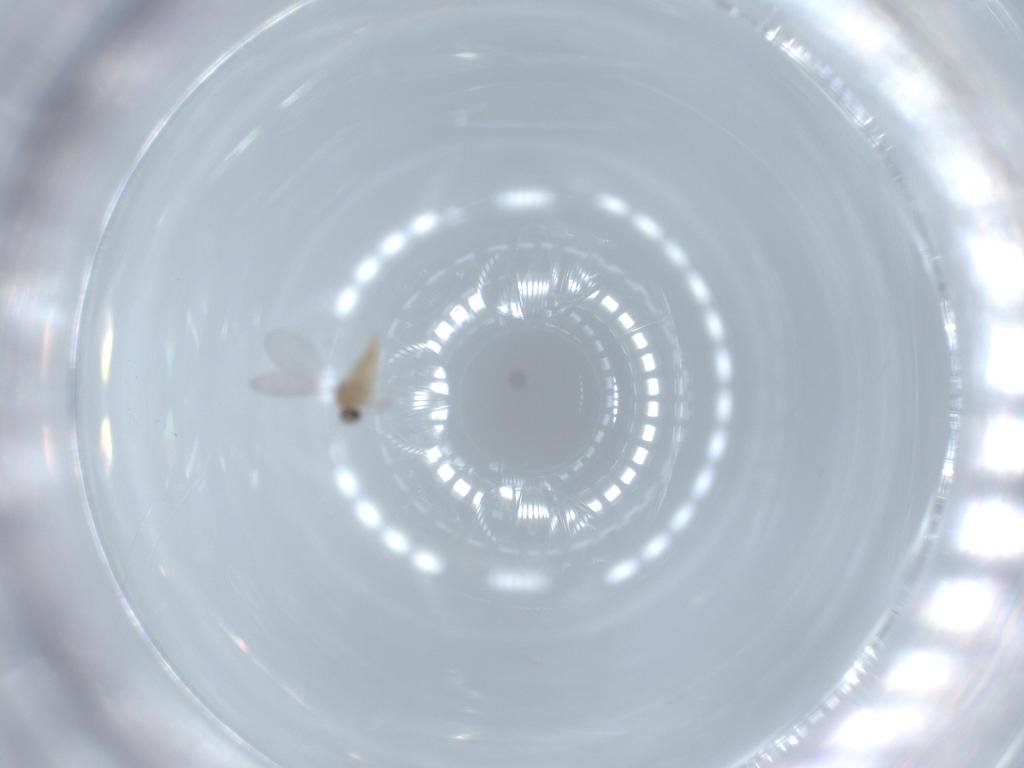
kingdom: Animalia
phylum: Arthropoda
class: Insecta
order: Diptera
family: Cecidomyiidae
